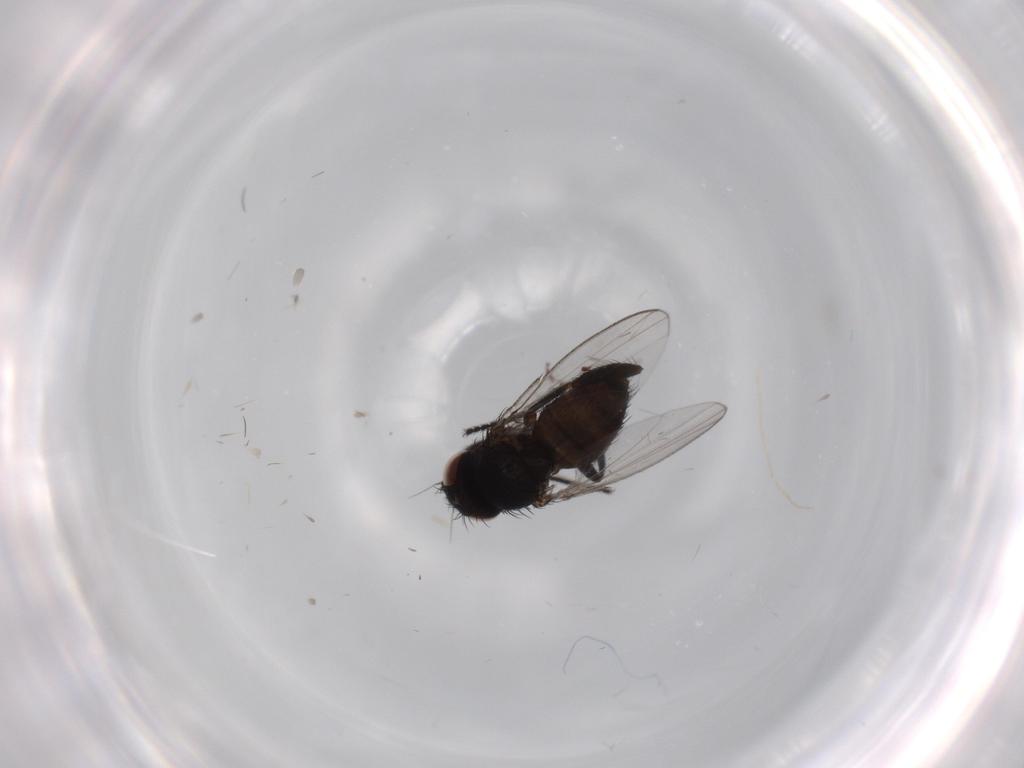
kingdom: Animalia
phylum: Arthropoda
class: Insecta
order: Diptera
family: Milichiidae
